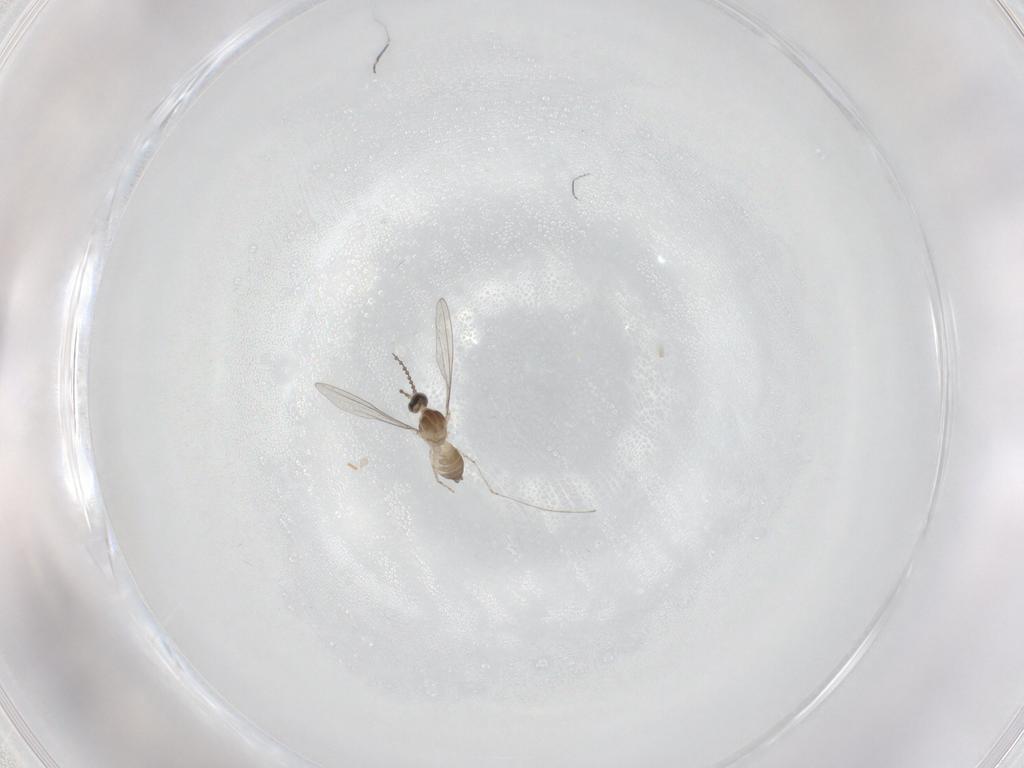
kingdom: Animalia
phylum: Arthropoda
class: Insecta
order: Diptera
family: Cecidomyiidae
